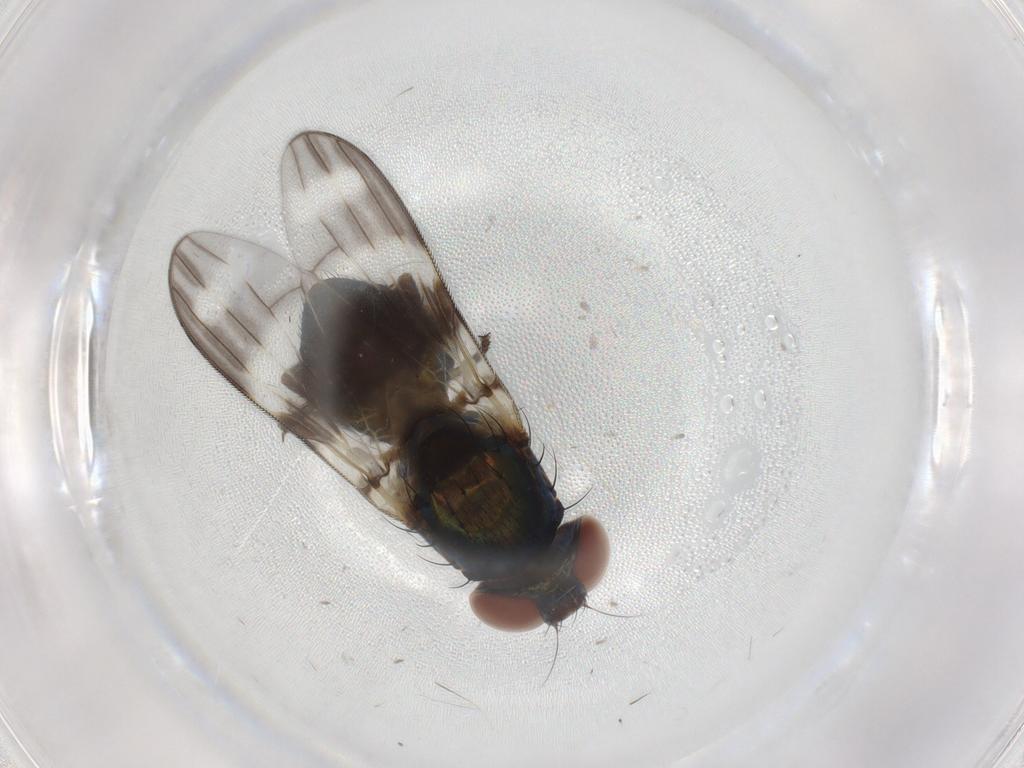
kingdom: Animalia
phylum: Arthropoda
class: Insecta
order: Diptera
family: Ulidiidae
